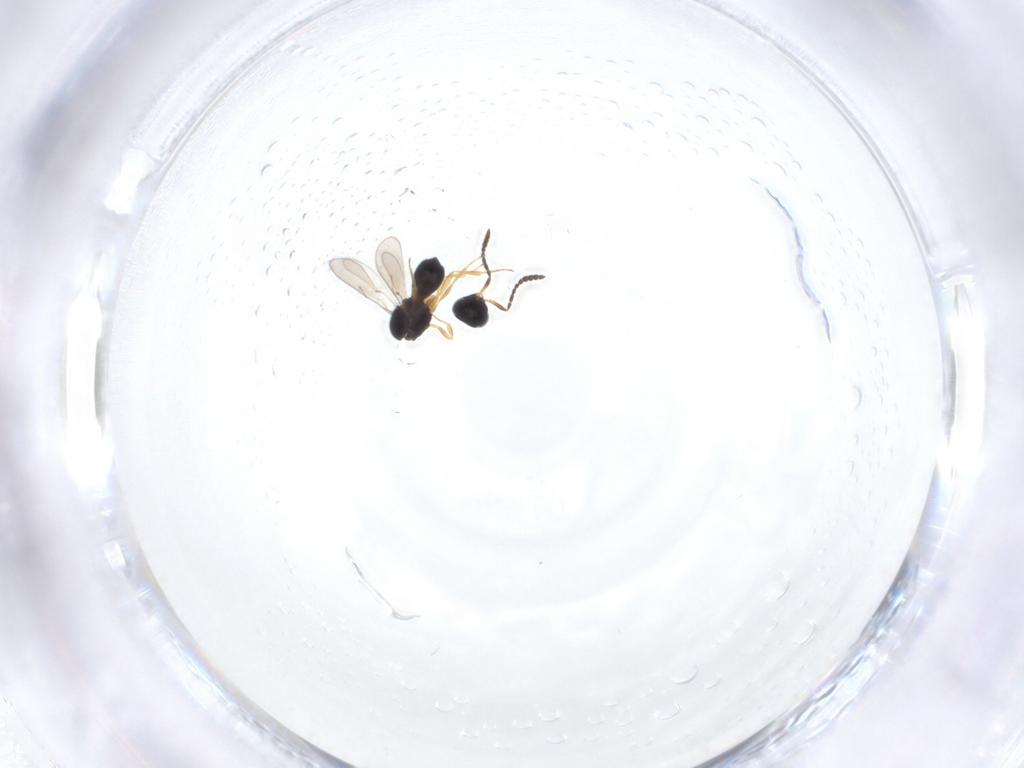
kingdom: Animalia
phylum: Arthropoda
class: Insecta
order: Hymenoptera
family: Scelionidae
